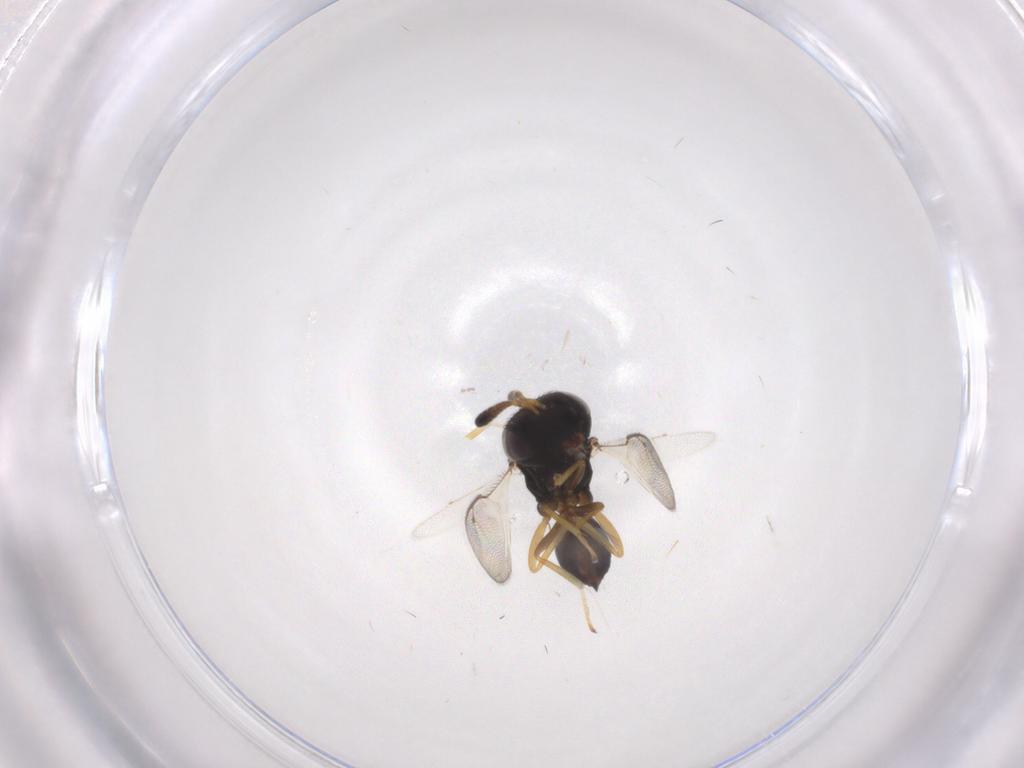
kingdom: Animalia
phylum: Arthropoda
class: Insecta
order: Hymenoptera
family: Pteromalidae
